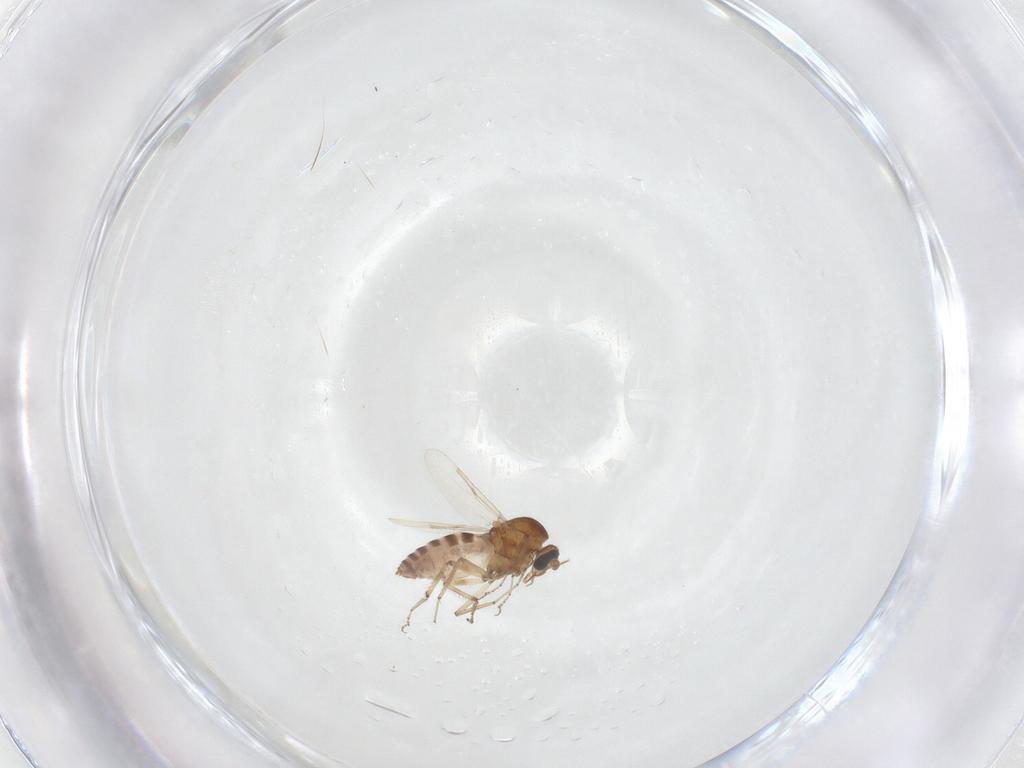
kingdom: Animalia
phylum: Arthropoda
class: Insecta
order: Diptera
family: Ceratopogonidae
